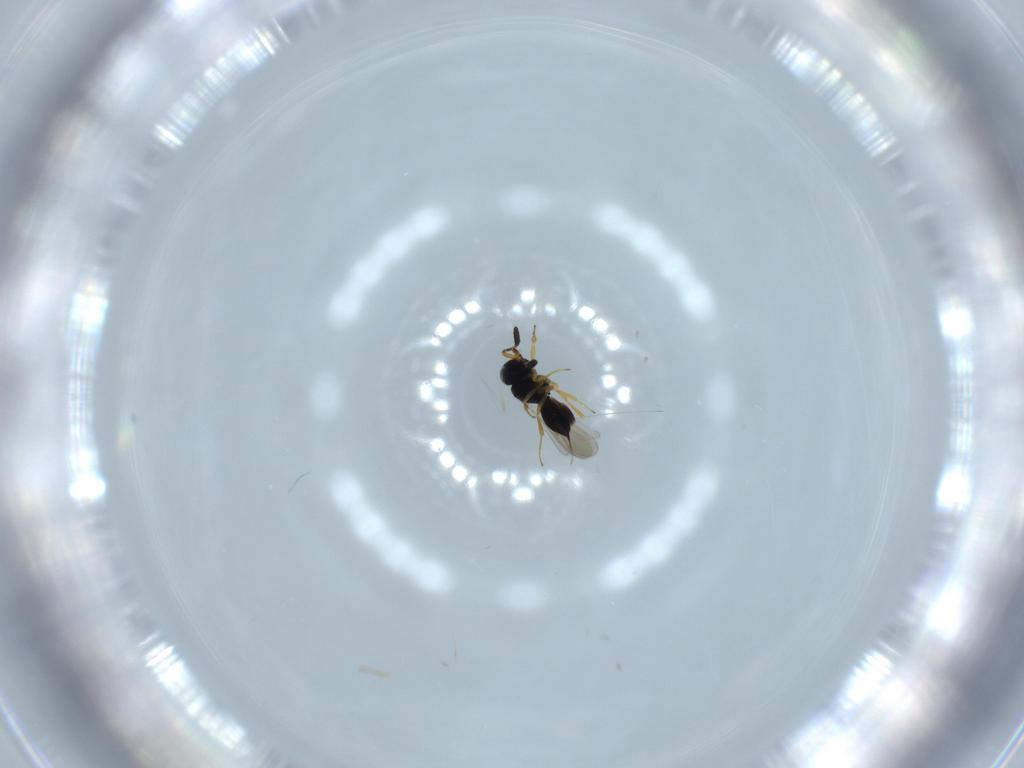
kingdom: Animalia
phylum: Arthropoda
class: Insecta
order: Hymenoptera
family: Scelionidae
